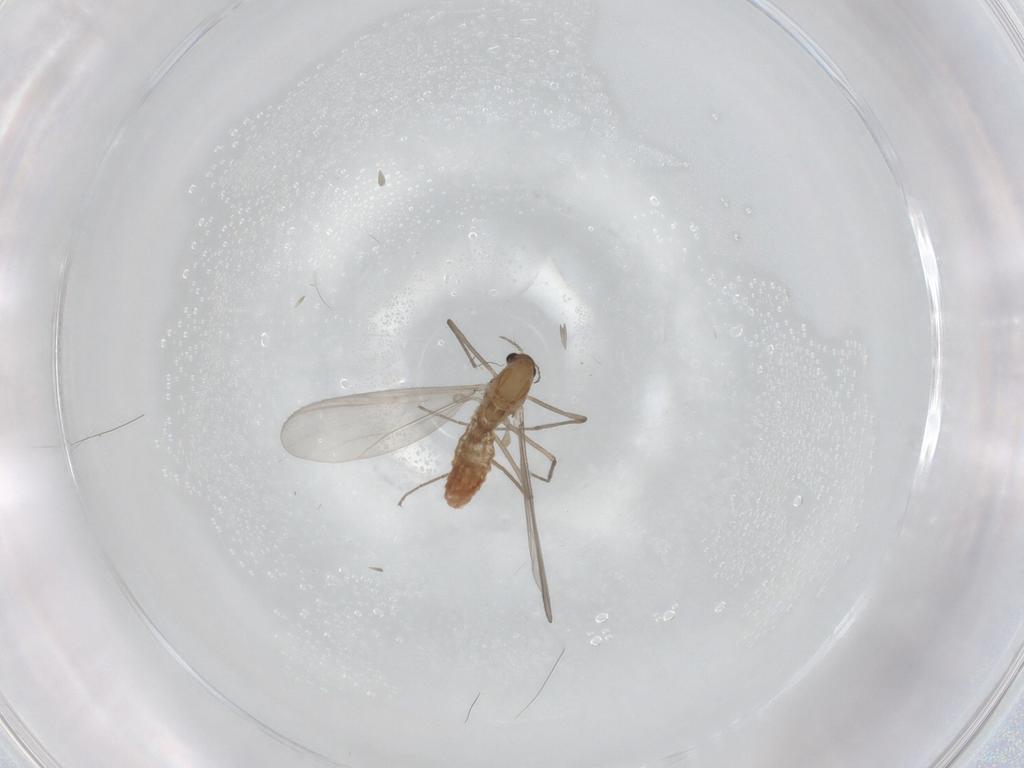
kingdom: Animalia
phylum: Arthropoda
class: Insecta
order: Diptera
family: Chironomidae
